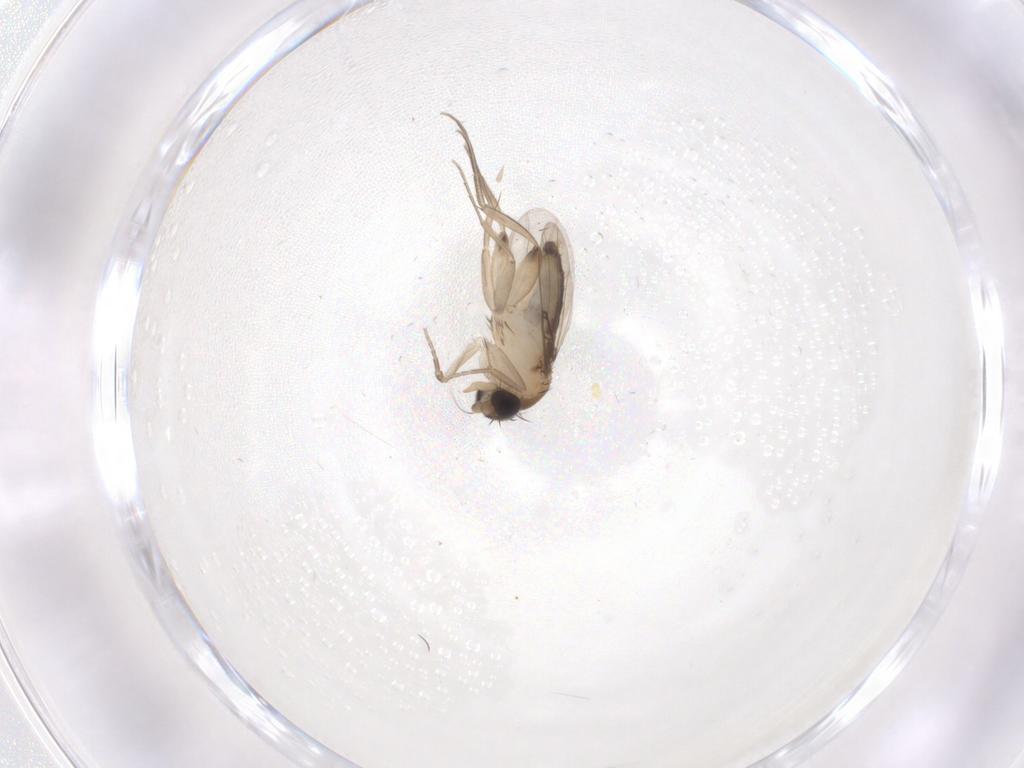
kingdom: Animalia
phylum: Arthropoda
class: Insecta
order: Diptera
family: Phoridae
